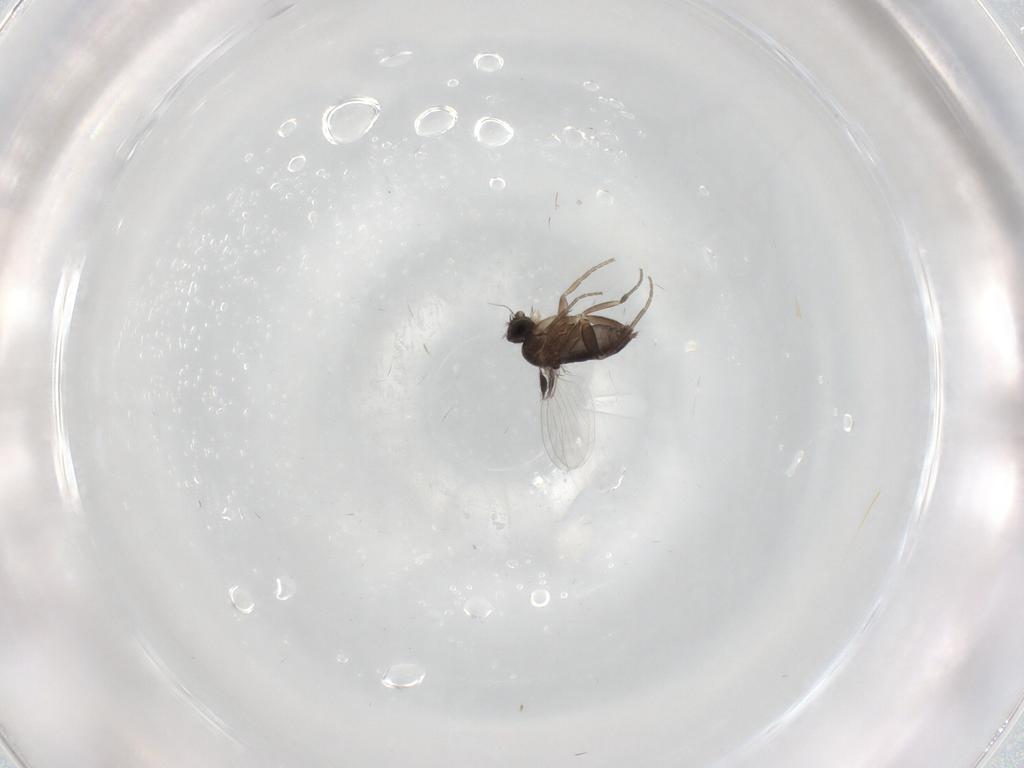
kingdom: Animalia
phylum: Arthropoda
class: Insecta
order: Diptera
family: Phoridae
